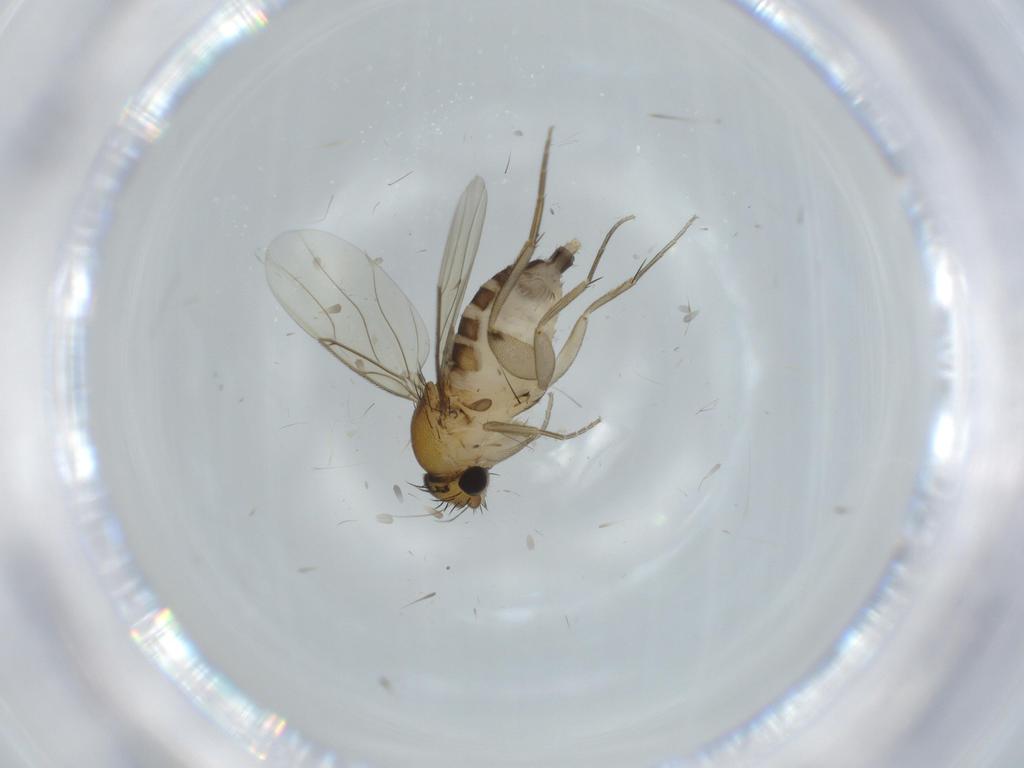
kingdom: Animalia
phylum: Arthropoda
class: Insecta
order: Diptera
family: Phoridae
